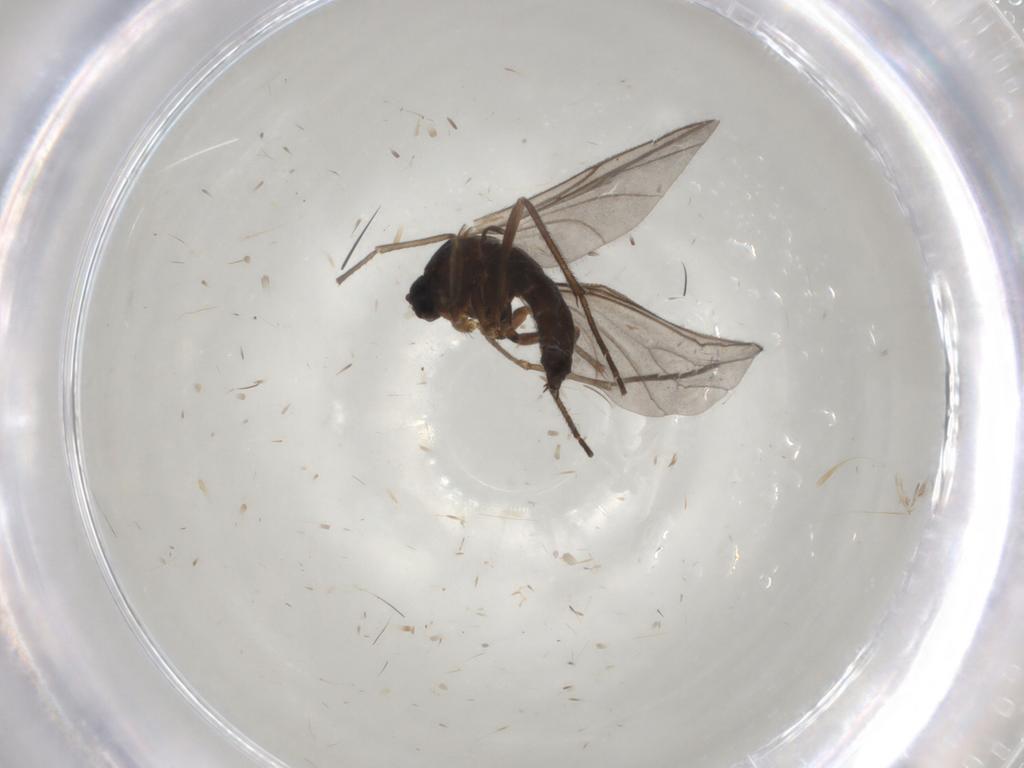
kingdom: Animalia
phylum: Arthropoda
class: Insecta
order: Diptera
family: Sciaridae
